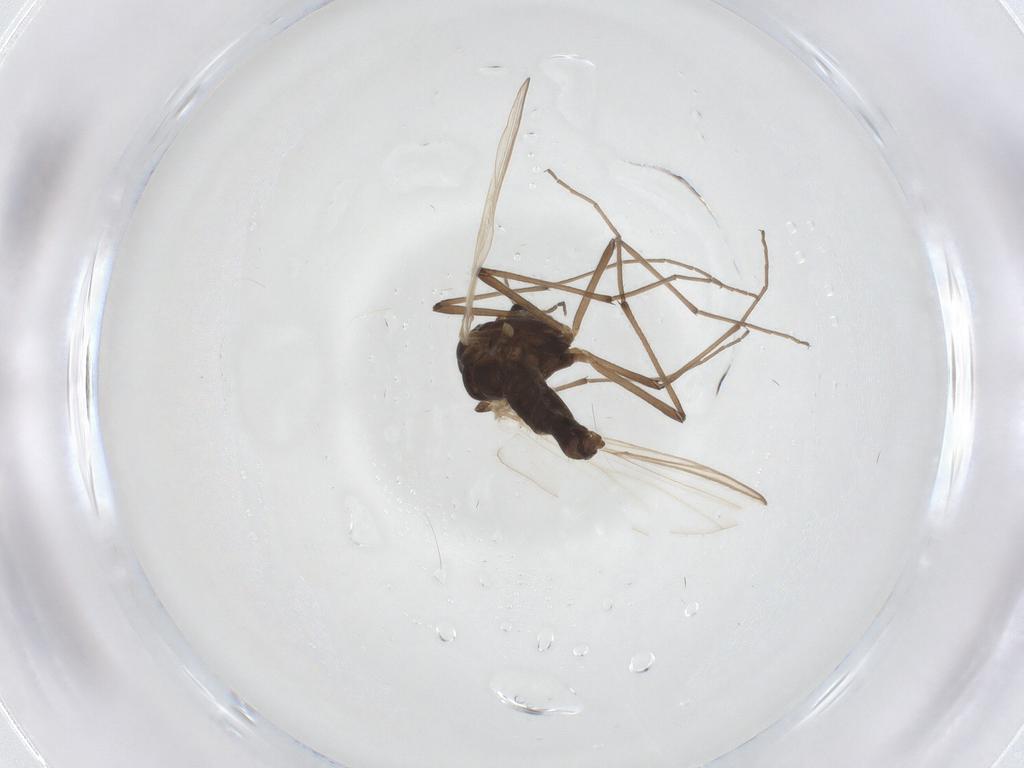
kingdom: Animalia
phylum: Arthropoda
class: Insecta
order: Diptera
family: Chironomidae
